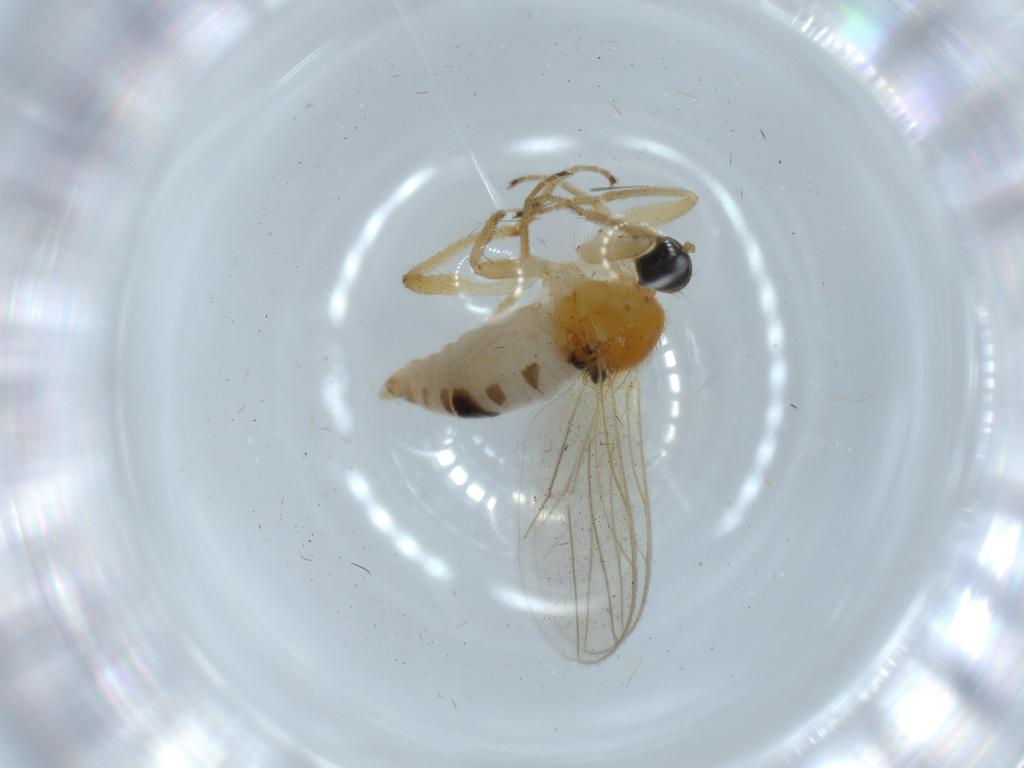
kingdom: Animalia
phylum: Arthropoda
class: Insecta
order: Diptera
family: Hybotidae
